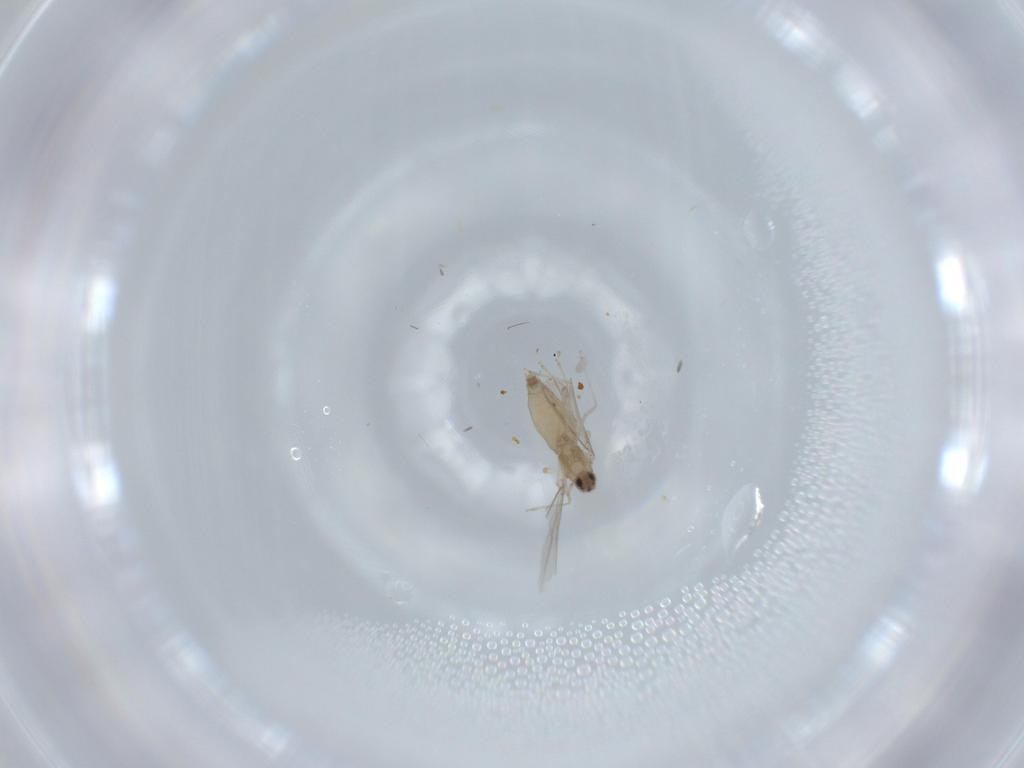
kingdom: Animalia
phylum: Arthropoda
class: Insecta
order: Diptera
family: Cecidomyiidae
